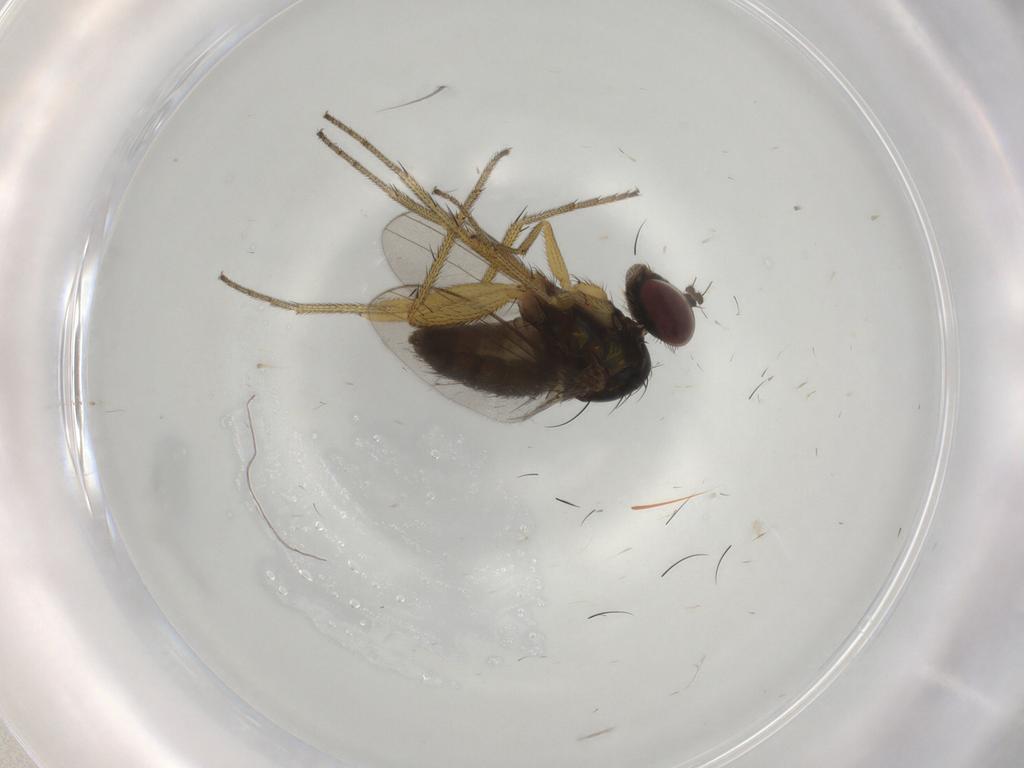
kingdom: Animalia
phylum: Arthropoda
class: Insecta
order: Diptera
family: Dolichopodidae
